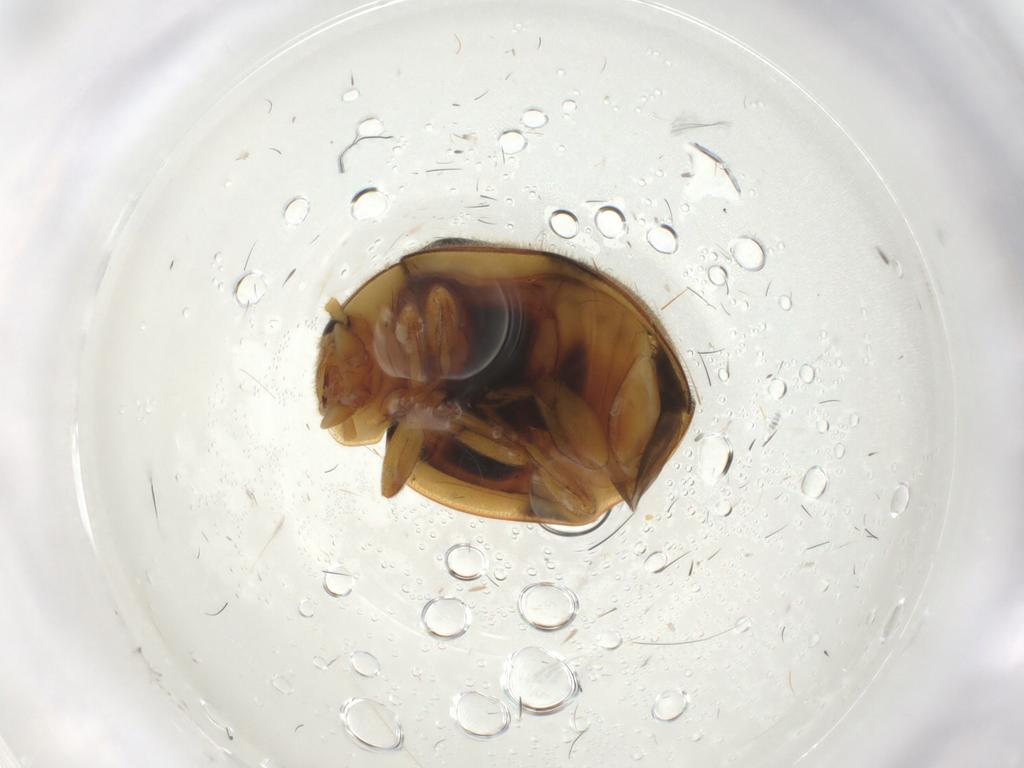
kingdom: Animalia
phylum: Arthropoda
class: Insecta
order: Coleoptera
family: Coccinellidae
